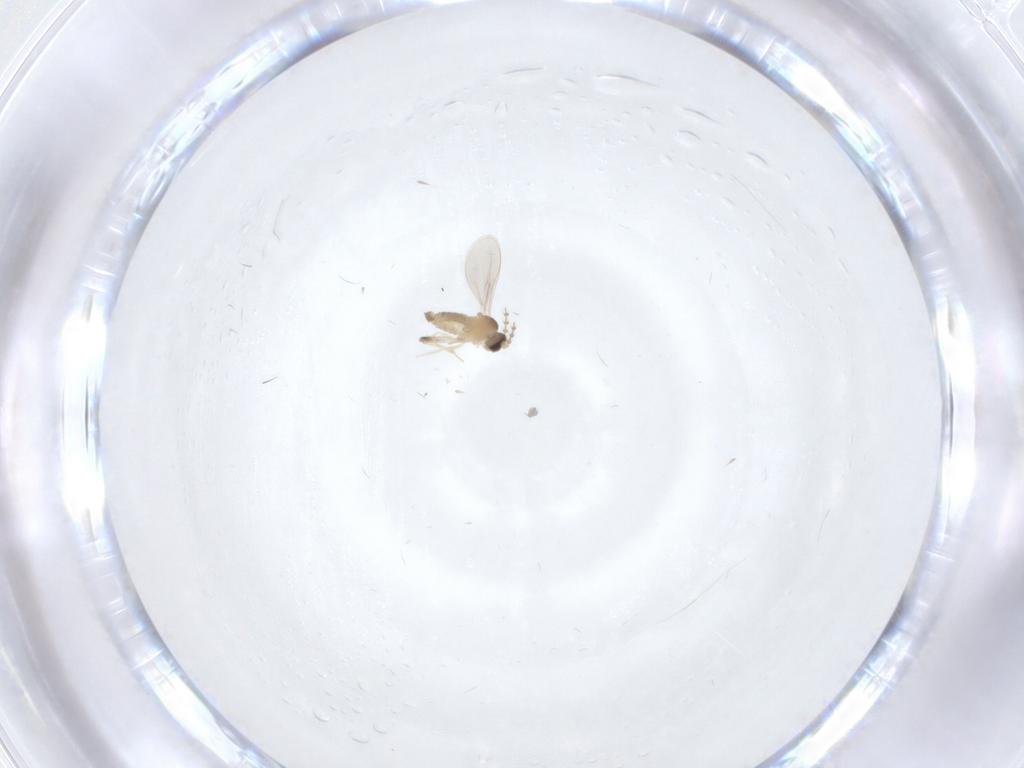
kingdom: Animalia
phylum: Arthropoda
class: Insecta
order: Diptera
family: Cecidomyiidae
